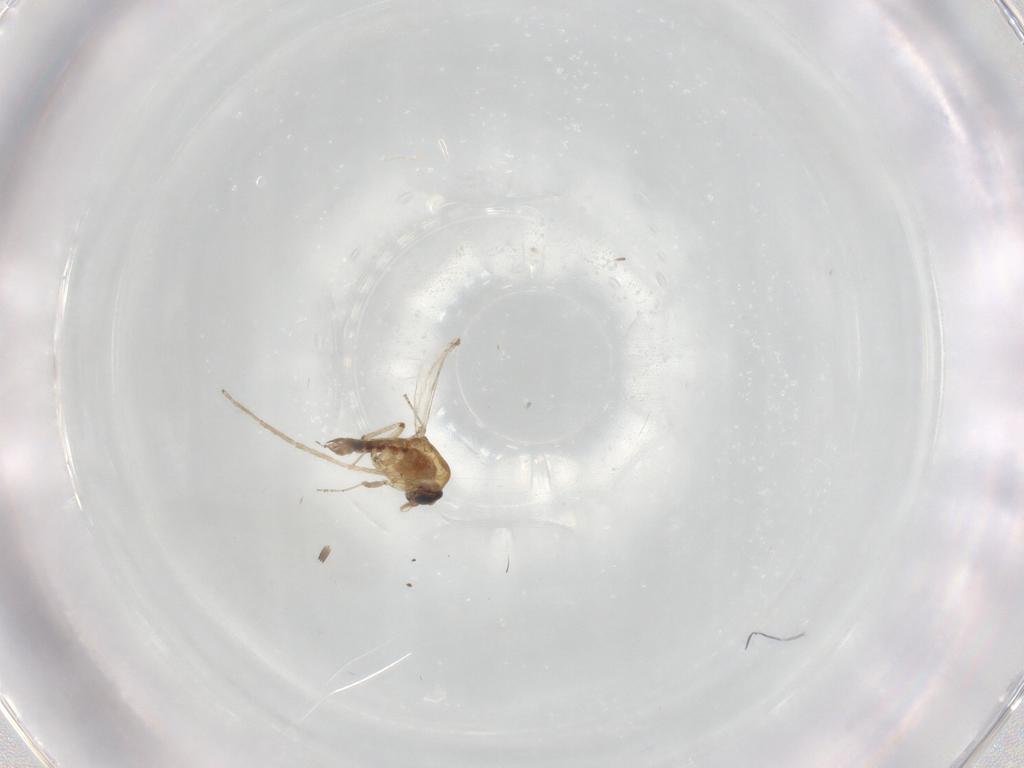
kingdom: Animalia
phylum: Arthropoda
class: Insecta
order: Diptera
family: Ceratopogonidae
